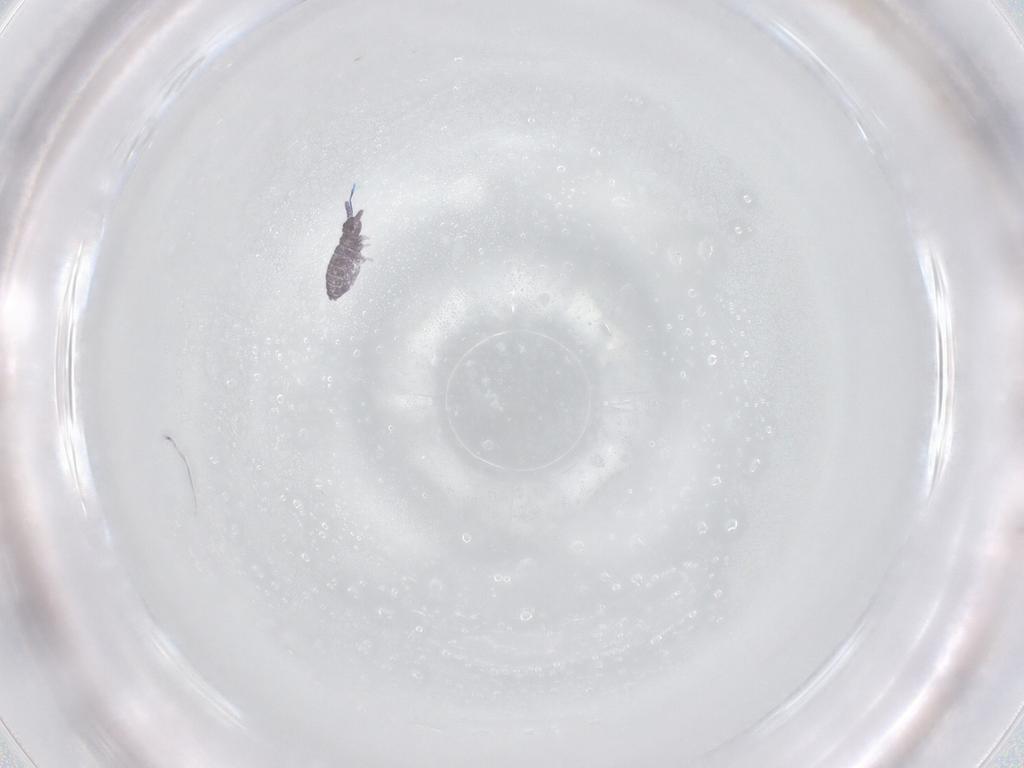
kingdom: Animalia
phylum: Arthropoda
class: Collembola
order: Poduromorpha
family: Brachystomellidae
